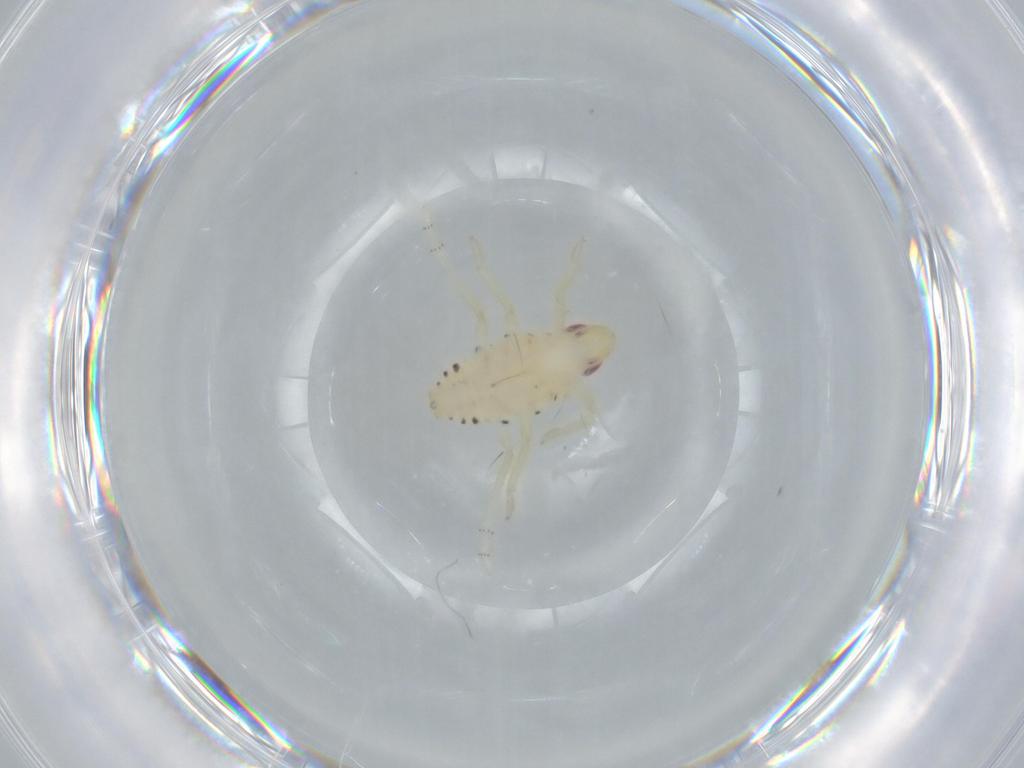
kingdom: Animalia
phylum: Arthropoda
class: Insecta
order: Hemiptera
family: Tropiduchidae
